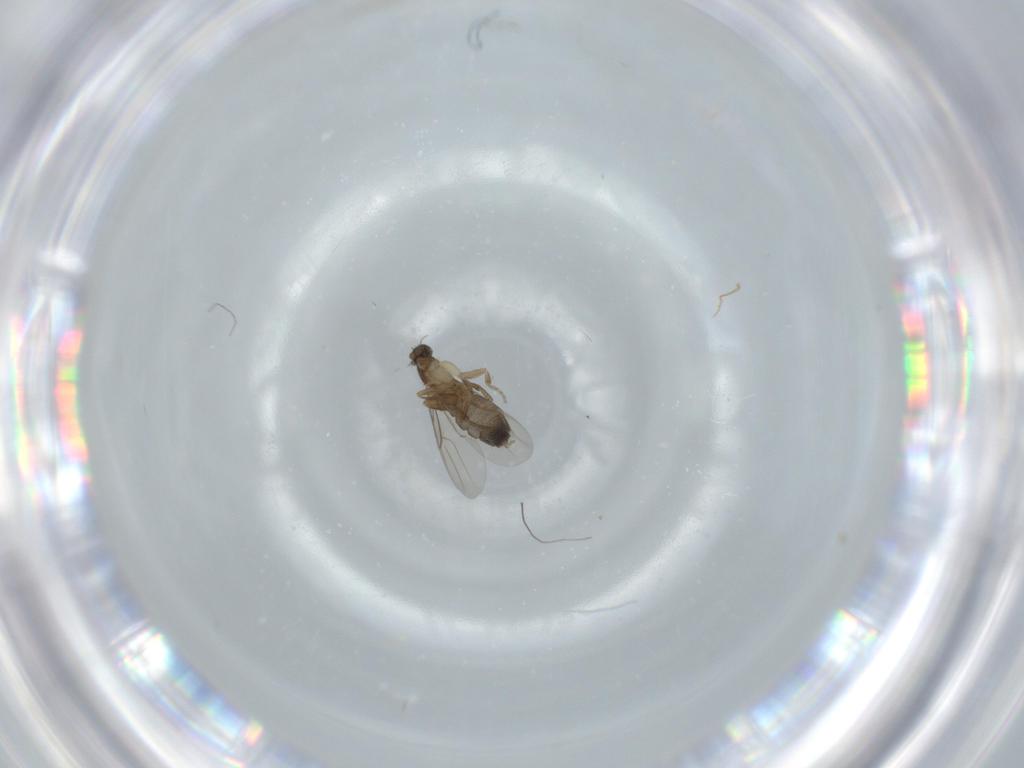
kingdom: Animalia
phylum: Arthropoda
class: Insecta
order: Diptera
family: Phoridae
